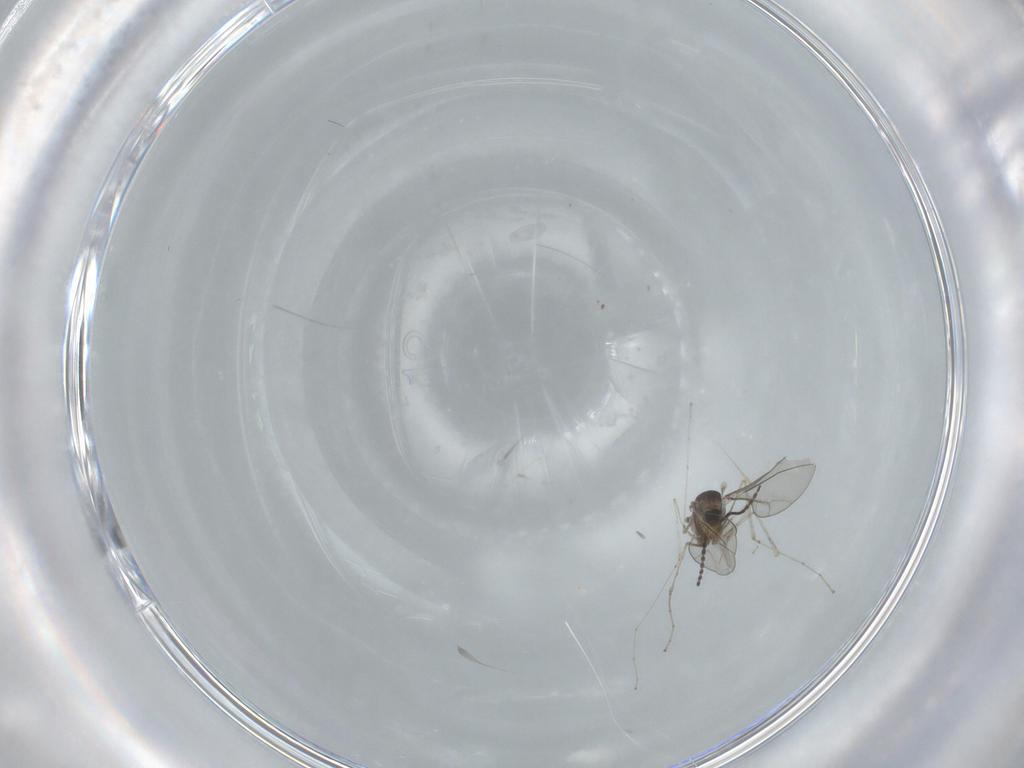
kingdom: Animalia
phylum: Arthropoda
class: Insecta
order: Diptera
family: Cecidomyiidae
